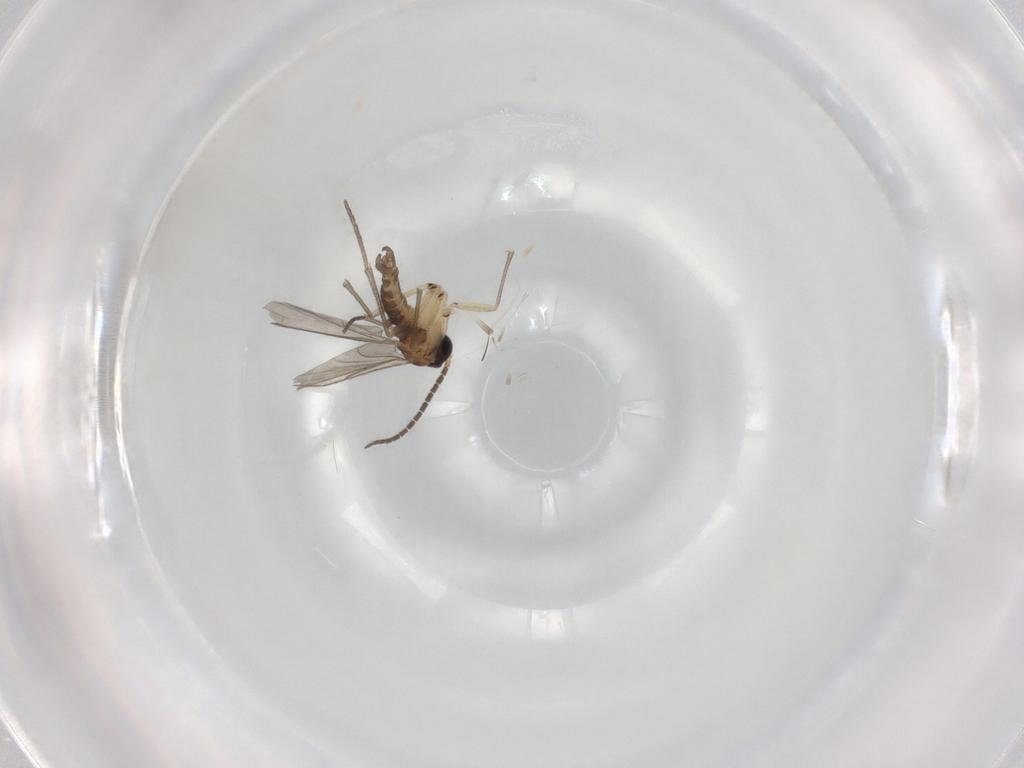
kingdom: Animalia
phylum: Arthropoda
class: Insecta
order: Diptera
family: Sciaridae
